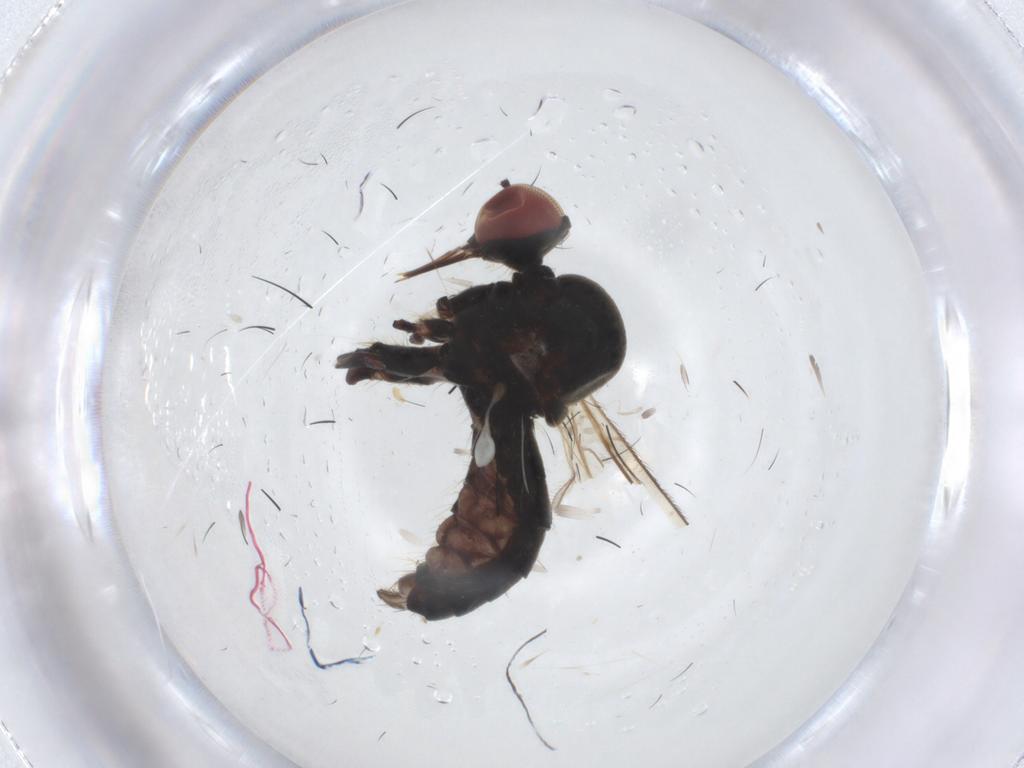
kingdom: Animalia
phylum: Arthropoda
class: Insecta
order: Diptera
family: Hybotidae
